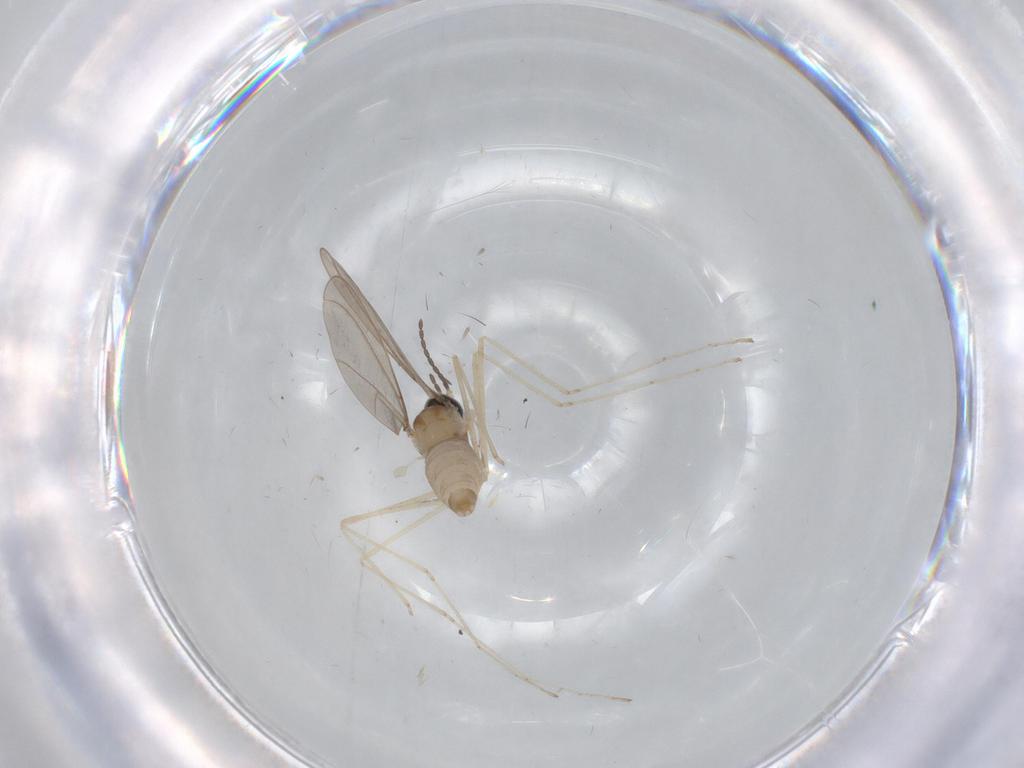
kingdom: Animalia
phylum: Arthropoda
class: Insecta
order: Diptera
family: Cecidomyiidae
